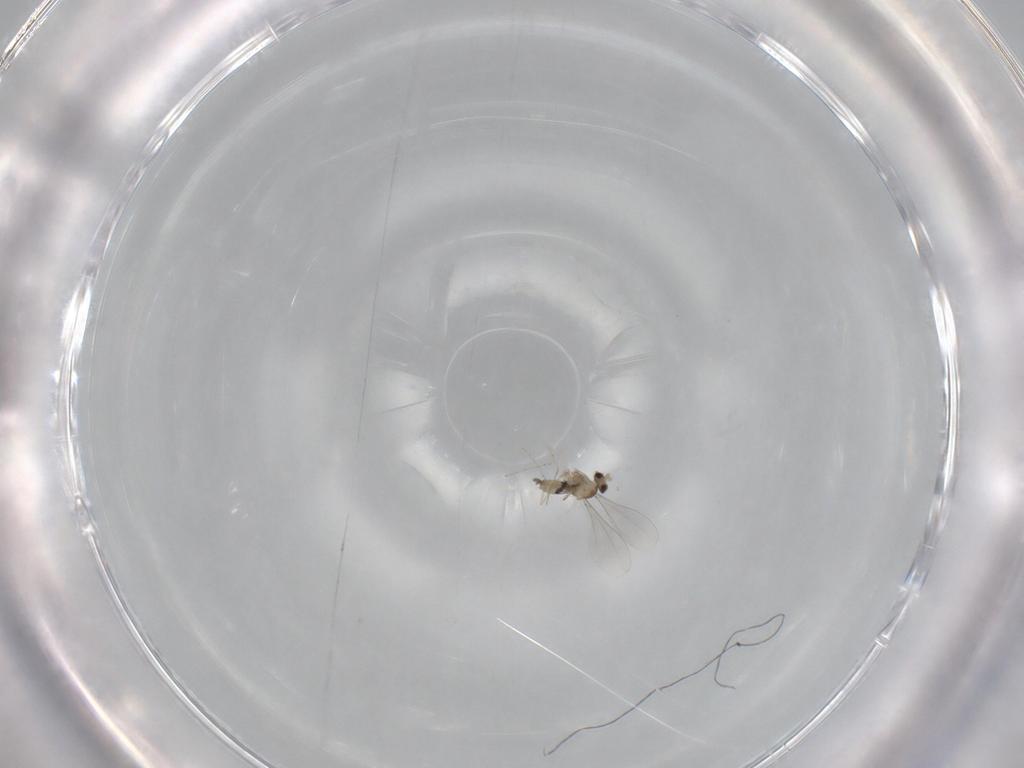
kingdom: Animalia
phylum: Arthropoda
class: Insecta
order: Diptera
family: Cecidomyiidae
